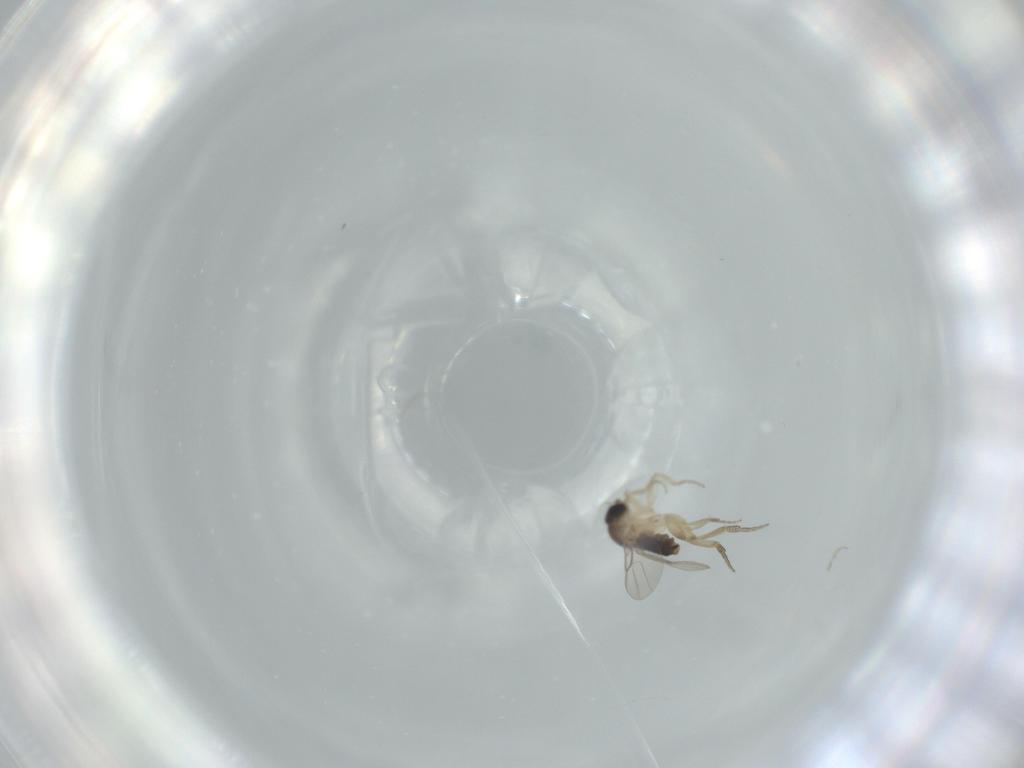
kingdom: Animalia
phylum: Arthropoda
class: Insecta
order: Diptera
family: Phoridae
